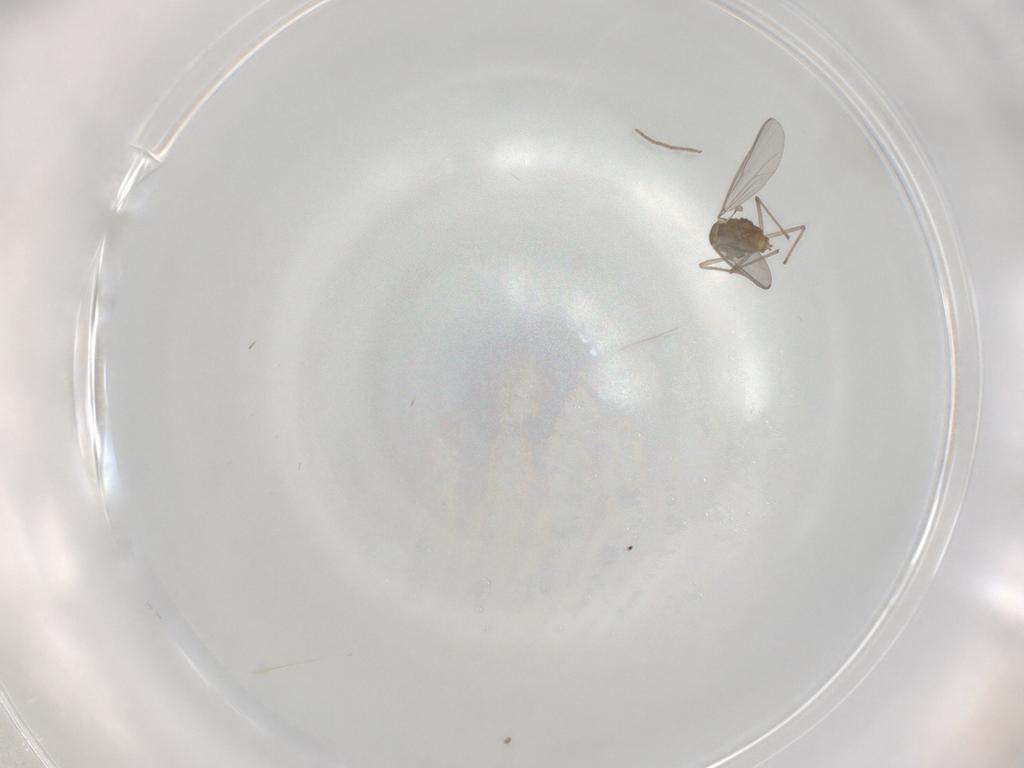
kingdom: Animalia
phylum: Arthropoda
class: Insecta
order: Diptera
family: Chironomidae
